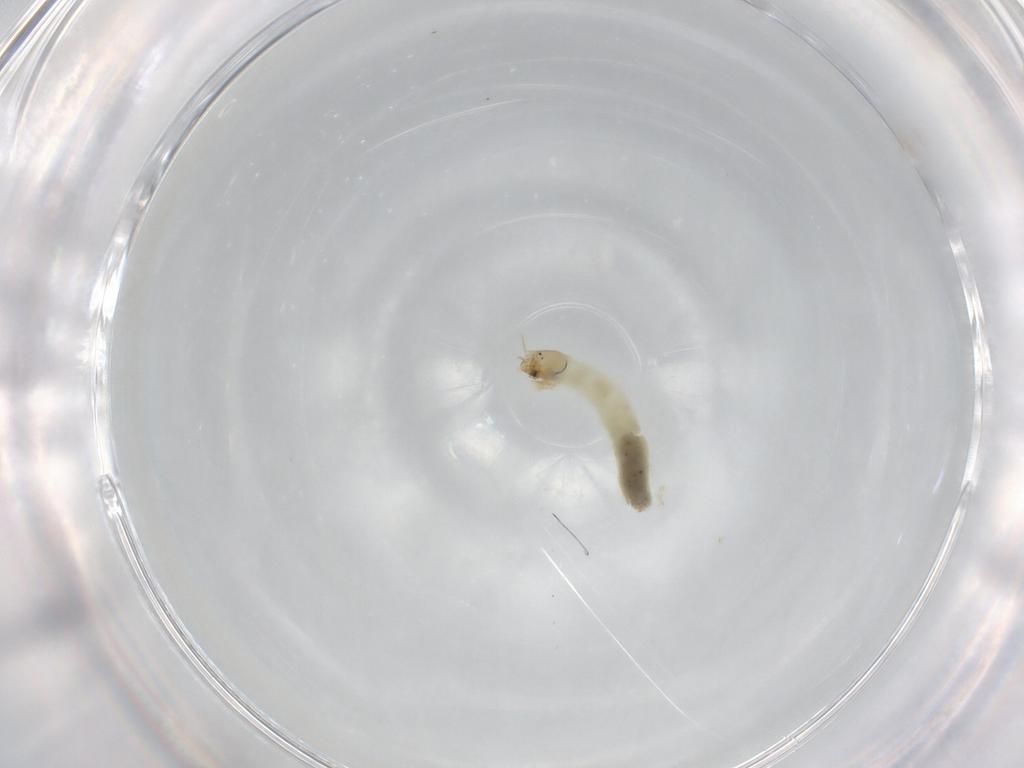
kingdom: Animalia
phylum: Arthropoda
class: Insecta
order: Diptera
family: Chironomidae
